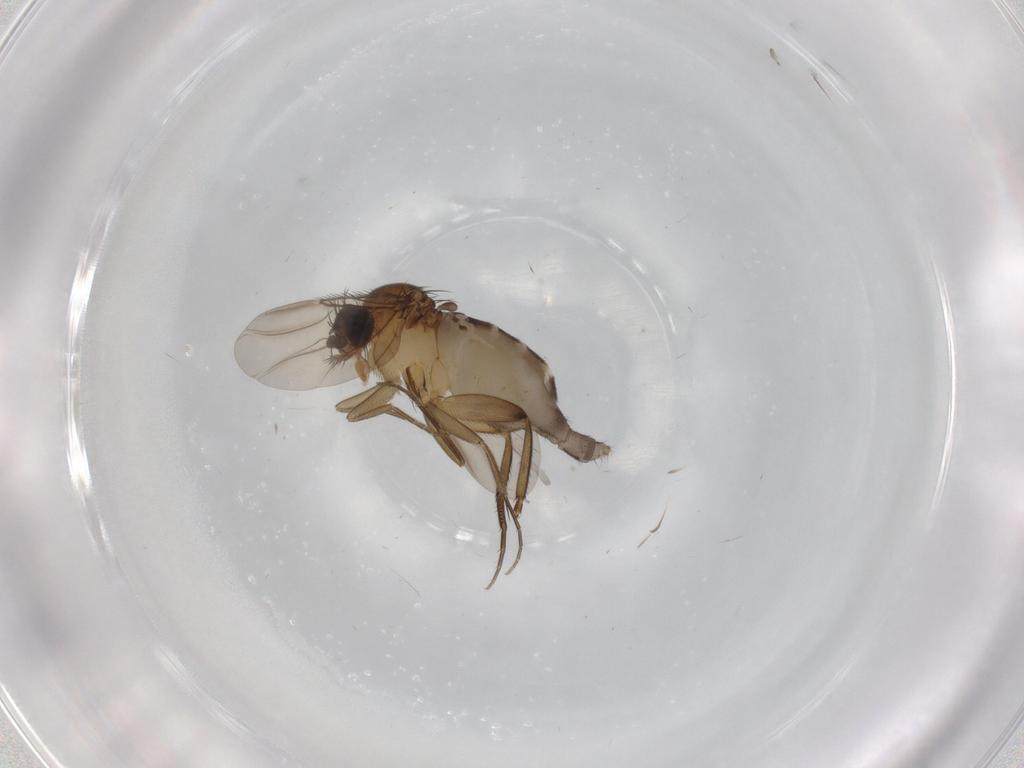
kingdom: Animalia
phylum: Arthropoda
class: Insecta
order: Diptera
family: Phoridae
